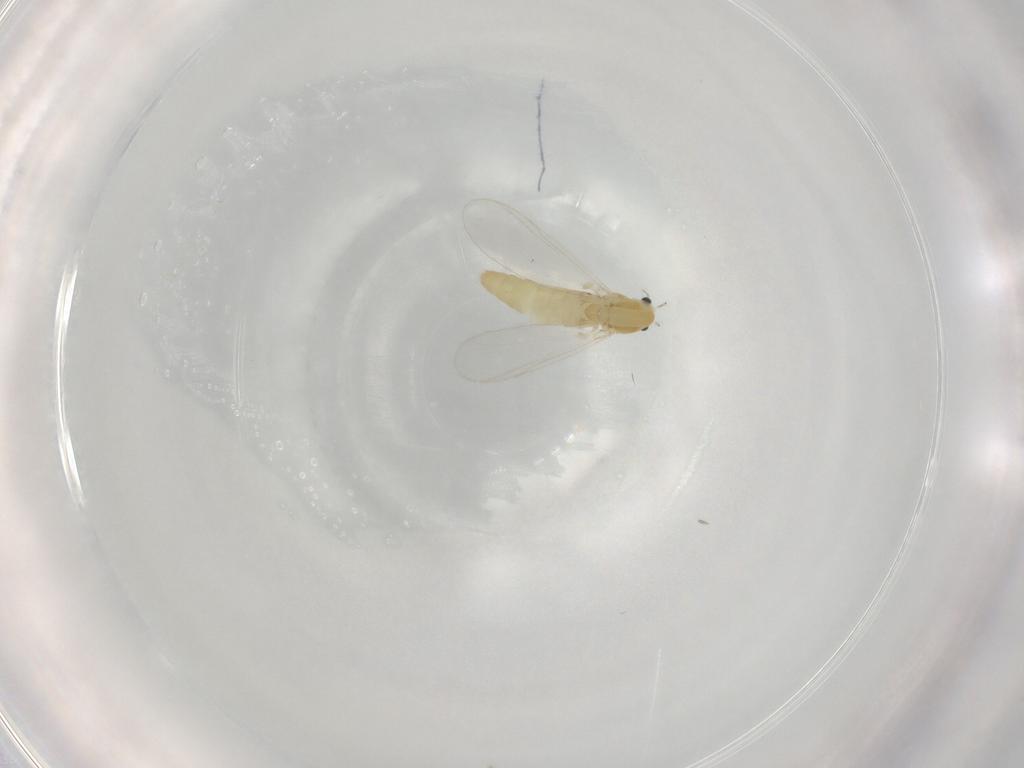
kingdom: Animalia
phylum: Arthropoda
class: Insecta
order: Diptera
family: Chironomidae
